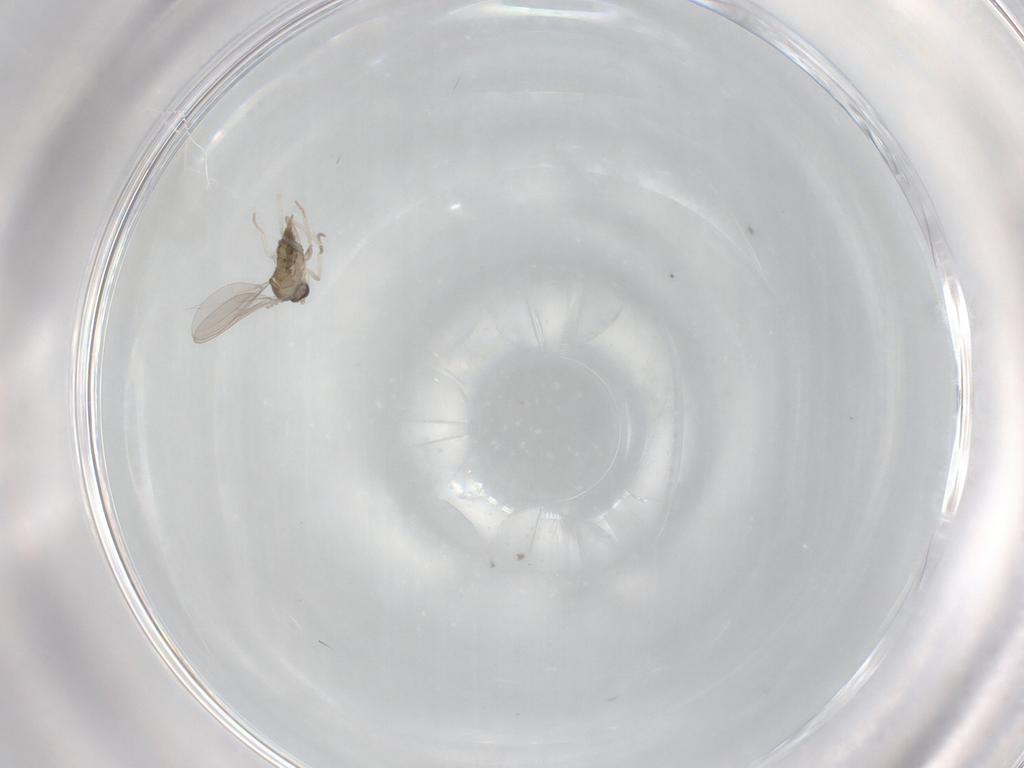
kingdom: Animalia
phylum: Arthropoda
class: Insecta
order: Diptera
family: Cecidomyiidae
